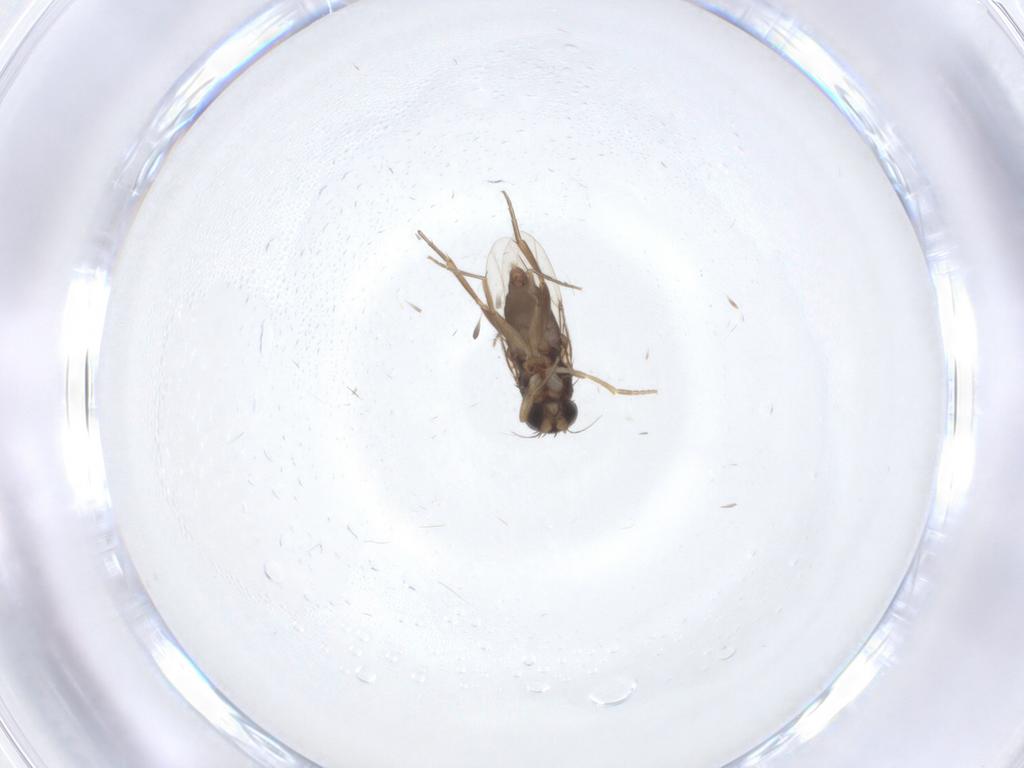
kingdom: Animalia
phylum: Arthropoda
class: Insecta
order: Diptera
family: Phoridae
